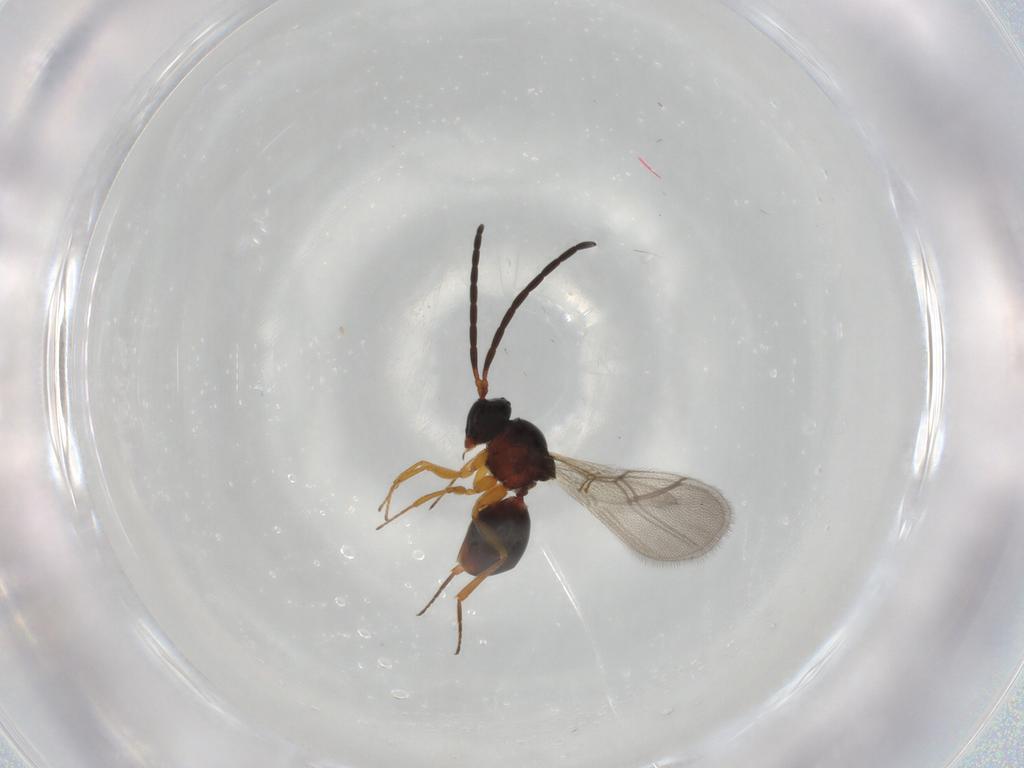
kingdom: Animalia
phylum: Arthropoda
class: Insecta
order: Hymenoptera
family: Figitidae
